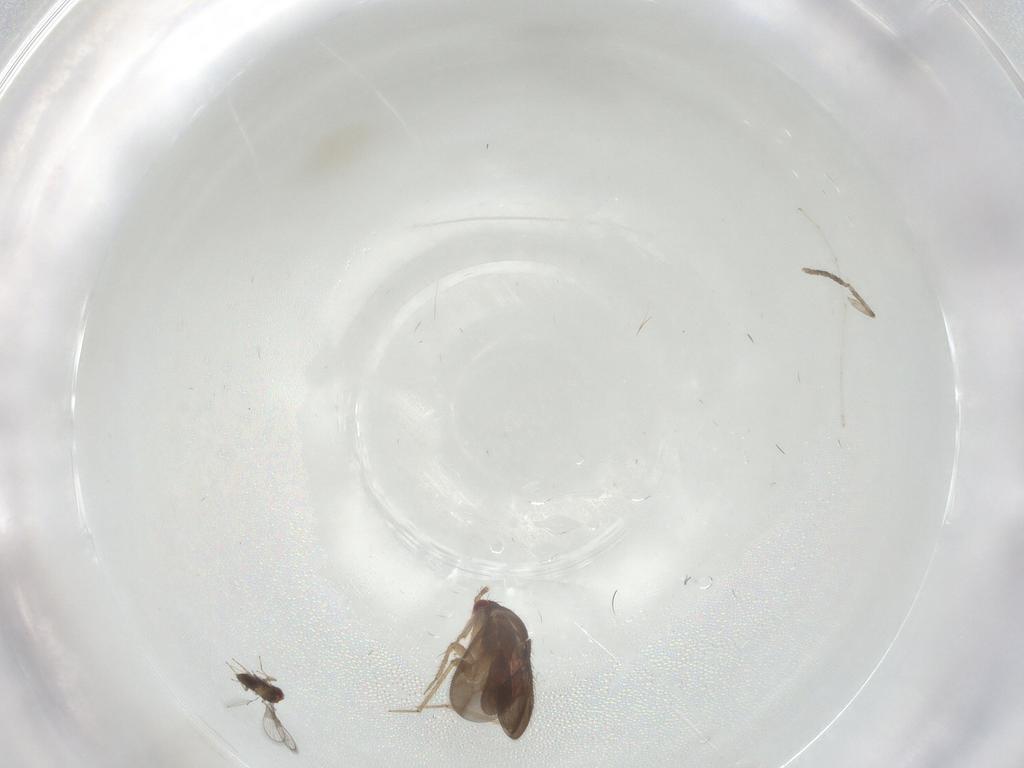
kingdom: Animalia
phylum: Arthropoda
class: Insecta
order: Hemiptera
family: Ceratocombidae
